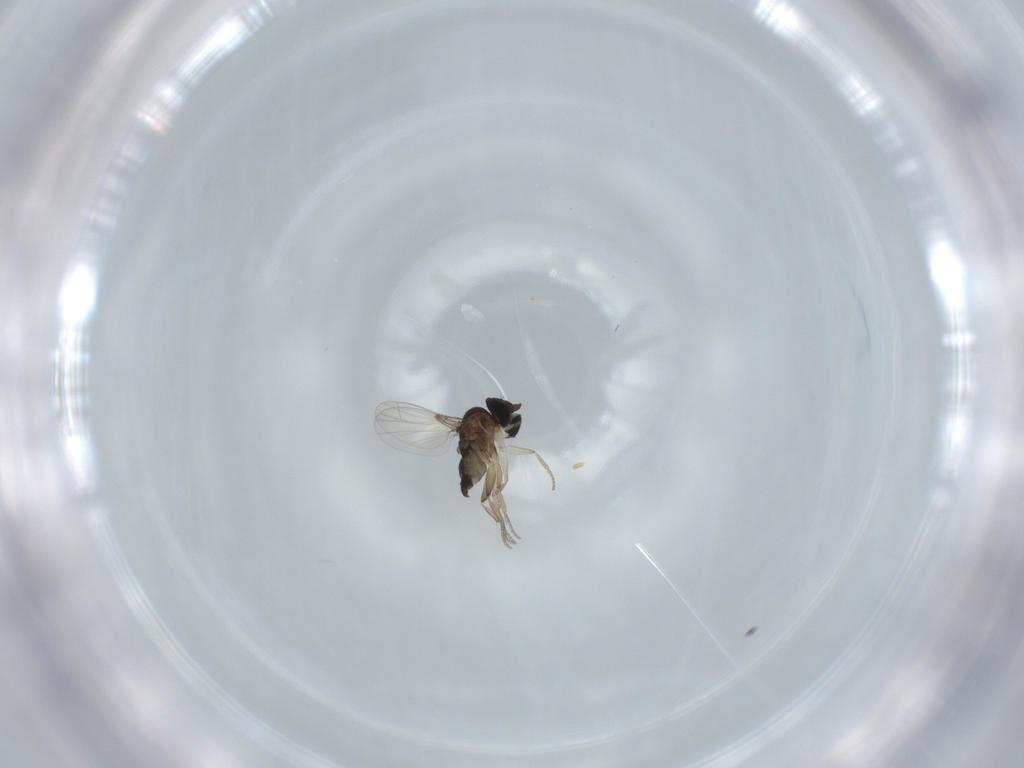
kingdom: Animalia
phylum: Arthropoda
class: Insecta
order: Diptera
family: Phoridae
